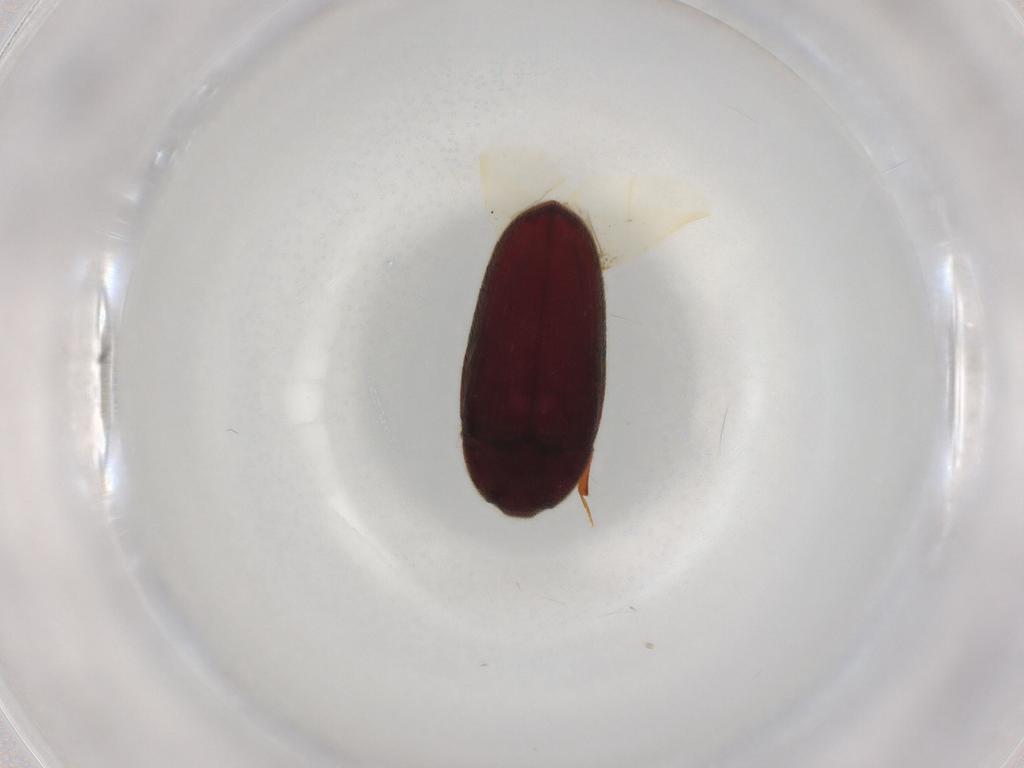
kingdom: Animalia
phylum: Arthropoda
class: Insecta
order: Coleoptera
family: Throscidae
